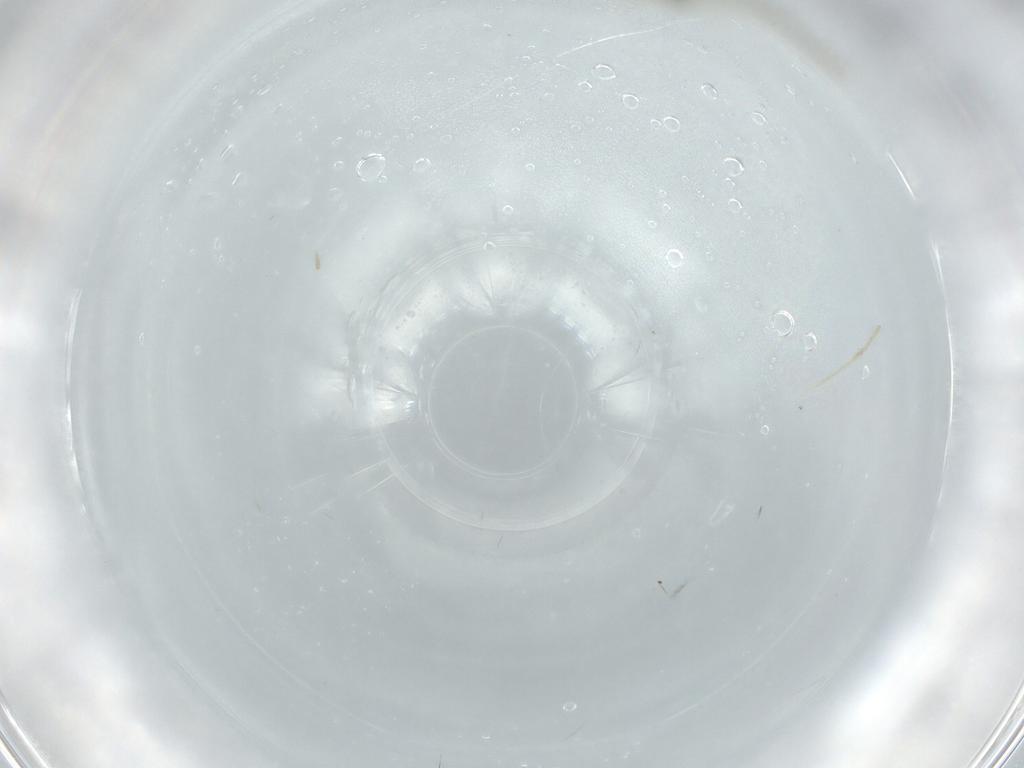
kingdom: Animalia
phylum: Arthropoda
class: Insecta
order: Diptera
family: Cecidomyiidae
